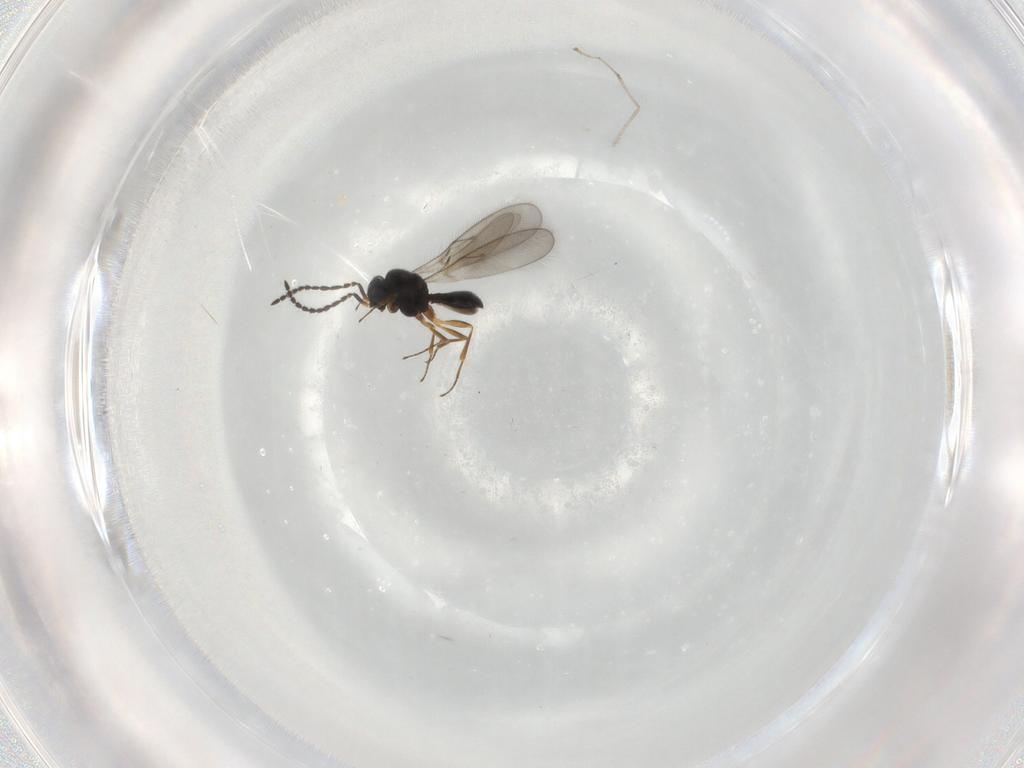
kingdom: Animalia
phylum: Arthropoda
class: Insecta
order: Hymenoptera
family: Scelionidae
